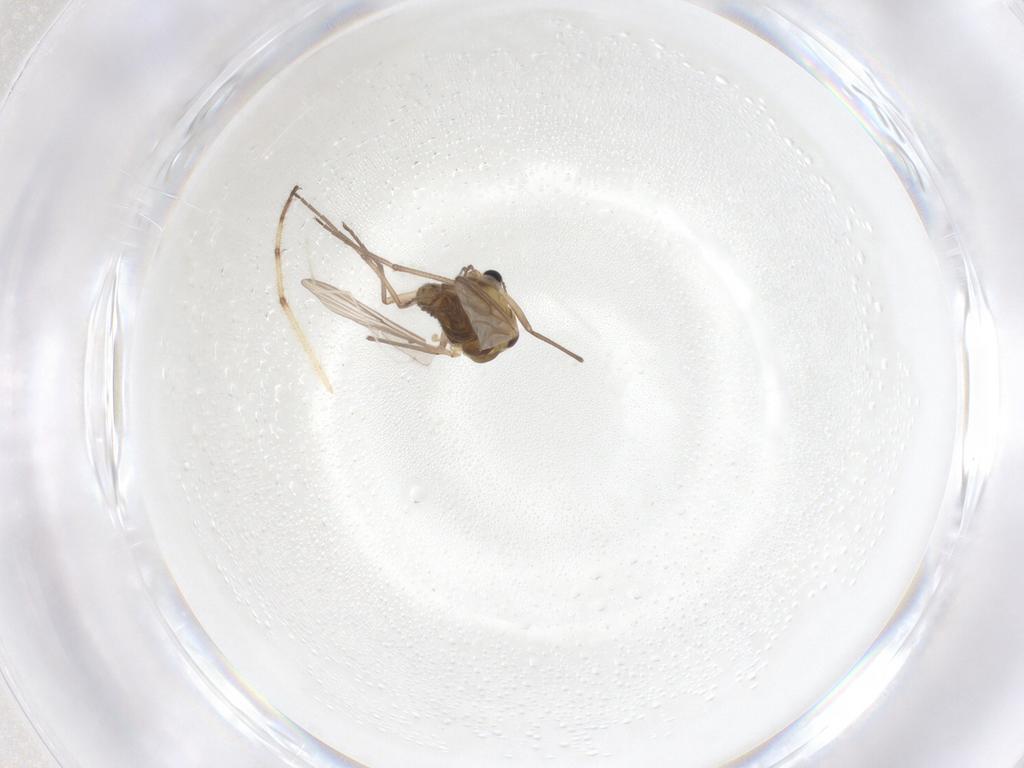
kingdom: Animalia
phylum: Arthropoda
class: Insecta
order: Diptera
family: Chironomidae
